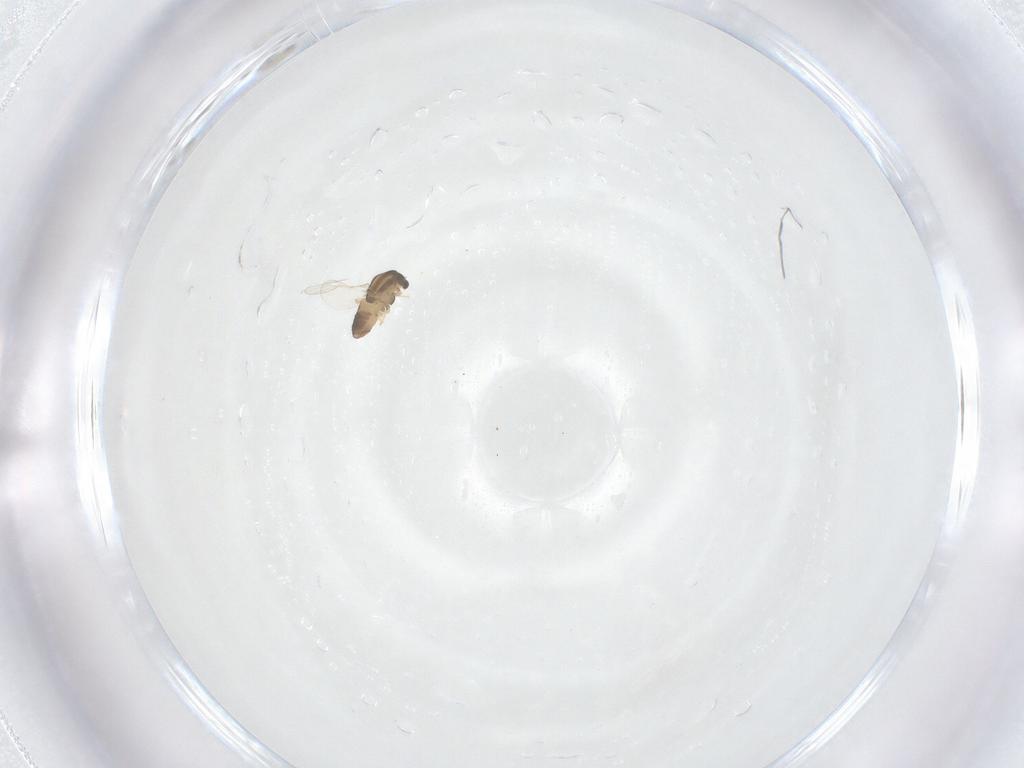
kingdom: Animalia
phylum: Arthropoda
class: Insecta
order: Diptera
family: Chironomidae
